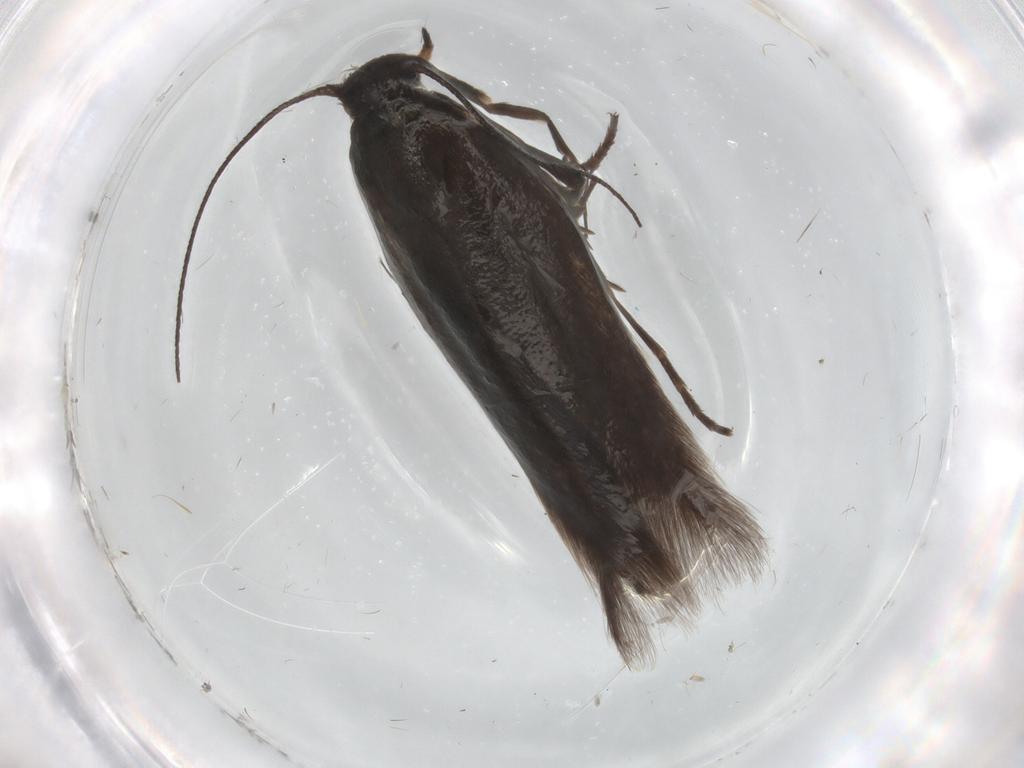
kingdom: Animalia
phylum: Arthropoda
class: Insecta
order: Lepidoptera
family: Scythrididae
